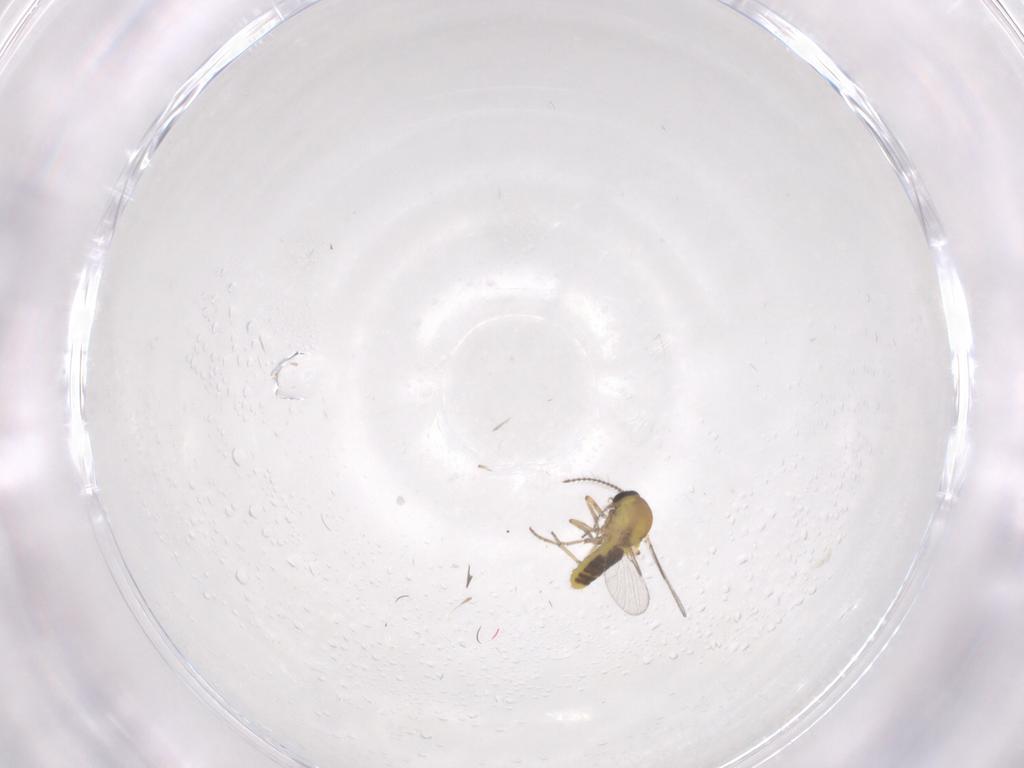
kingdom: Animalia
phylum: Arthropoda
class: Insecta
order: Diptera
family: Ceratopogonidae
